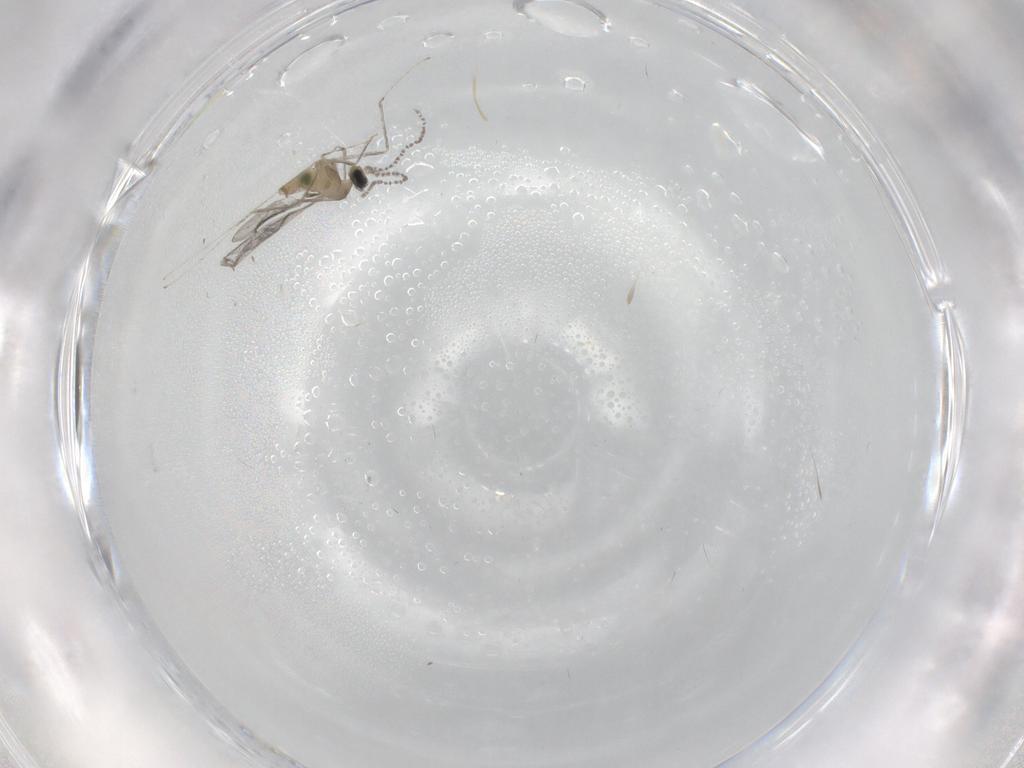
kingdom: Animalia
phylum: Arthropoda
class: Insecta
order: Diptera
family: Cecidomyiidae
